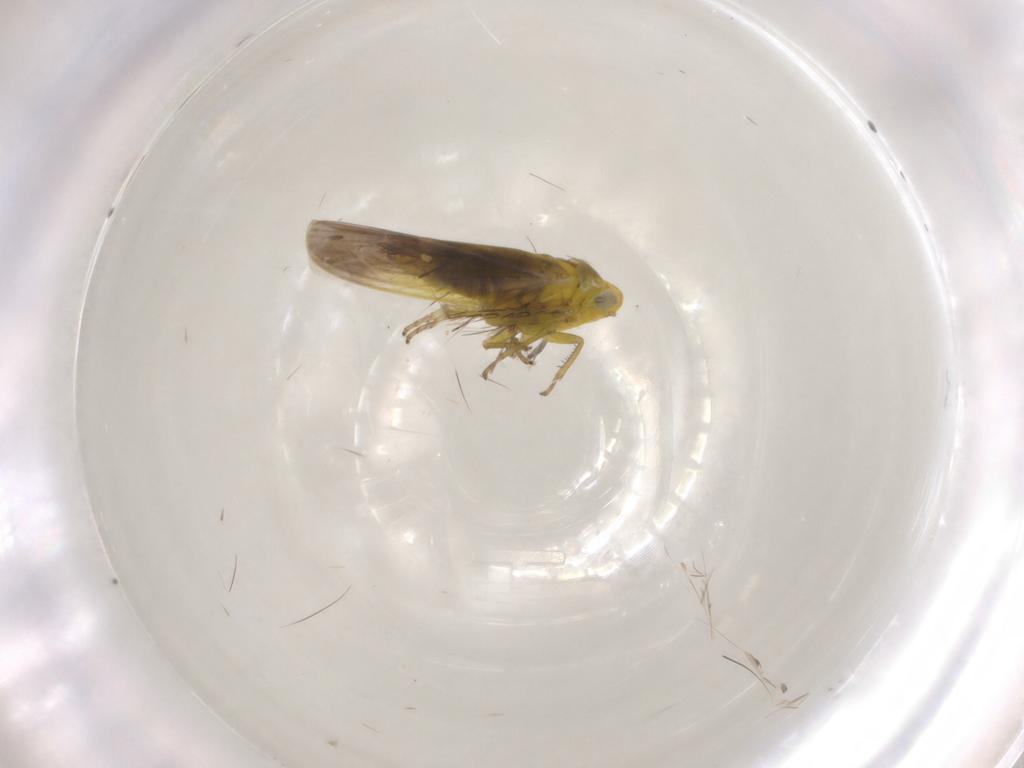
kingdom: Animalia
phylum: Arthropoda
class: Insecta
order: Hemiptera
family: Cicadellidae
